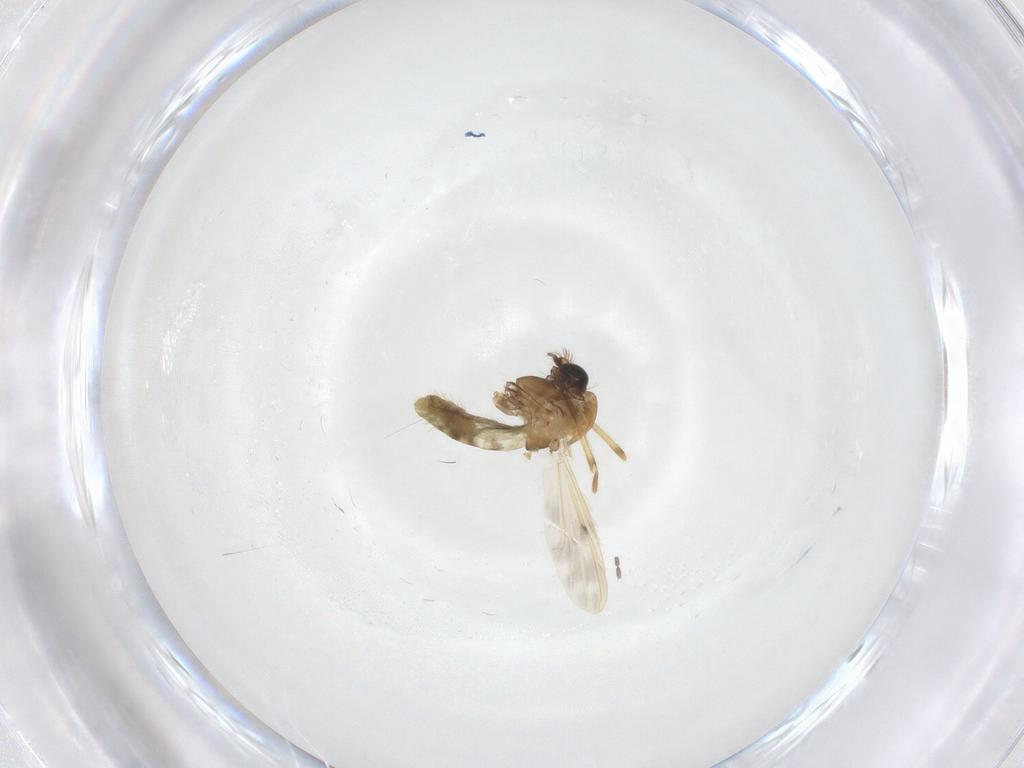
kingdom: Animalia
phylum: Arthropoda
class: Insecta
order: Diptera
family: Chironomidae
